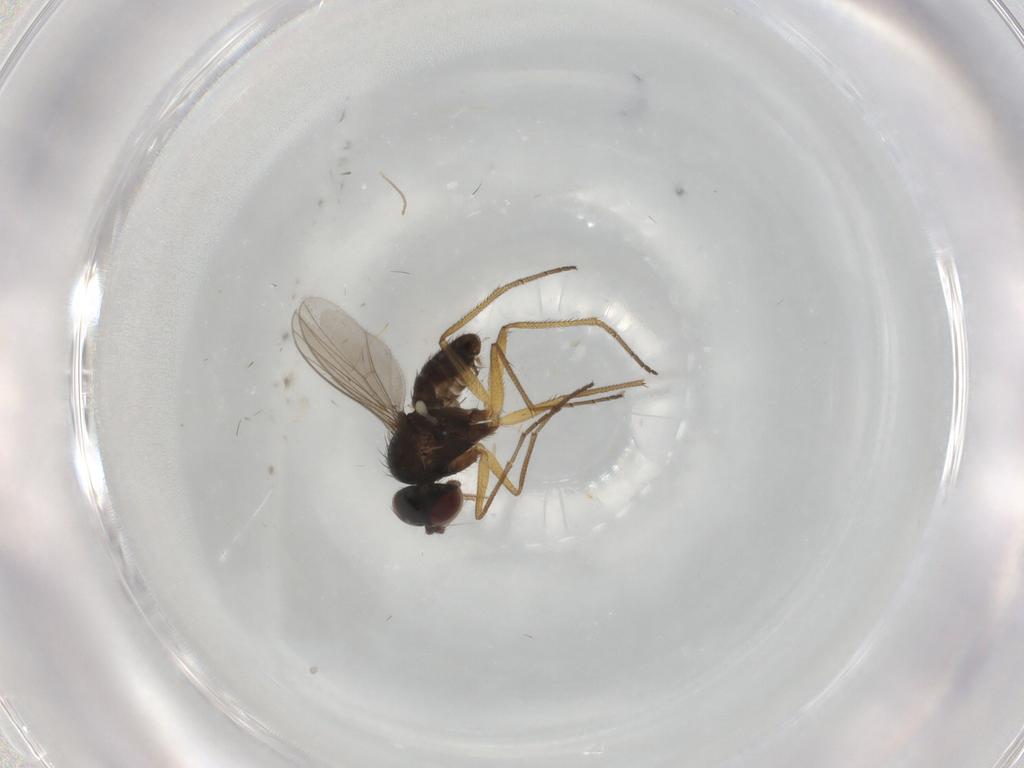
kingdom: Animalia
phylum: Arthropoda
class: Insecta
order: Diptera
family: Dolichopodidae
